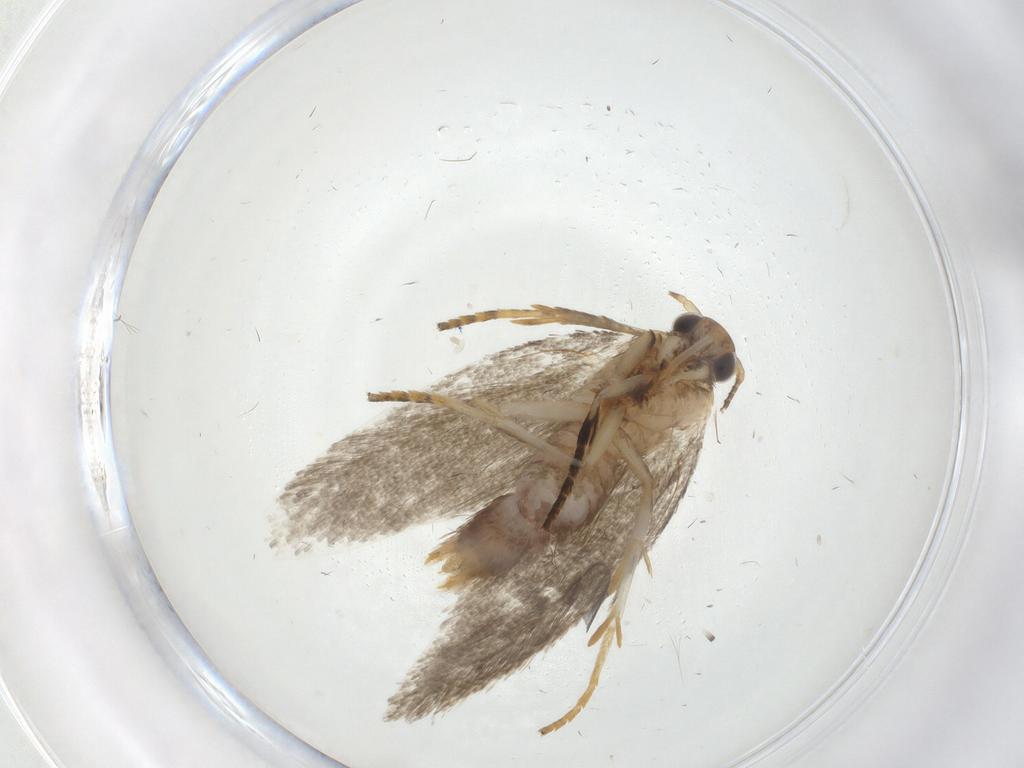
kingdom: Animalia
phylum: Arthropoda
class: Insecta
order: Lepidoptera
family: Oecophoridae
